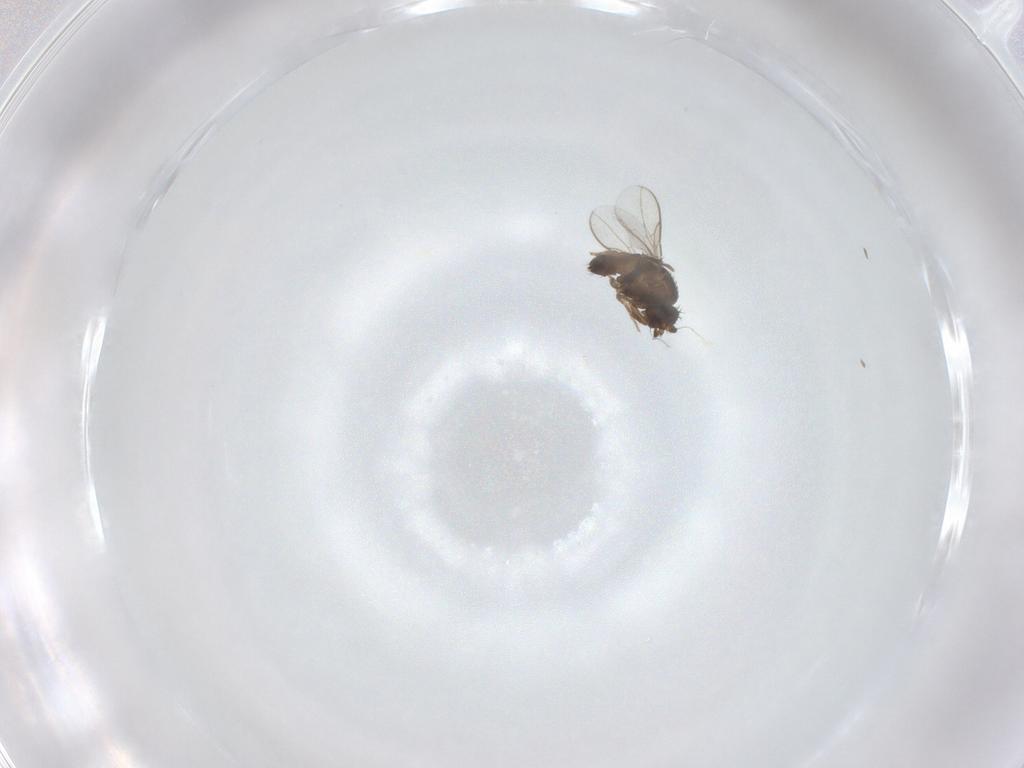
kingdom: Animalia
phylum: Arthropoda
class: Insecta
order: Diptera
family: Sphaeroceridae
